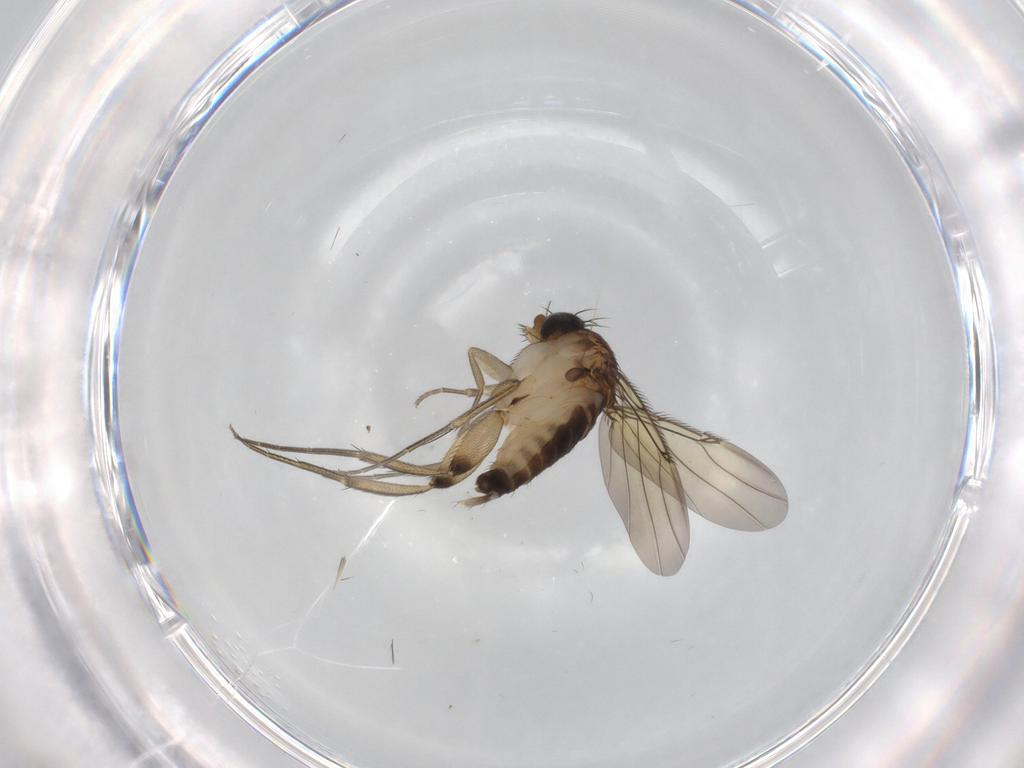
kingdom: Animalia
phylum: Arthropoda
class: Insecta
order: Diptera
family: Phoridae
